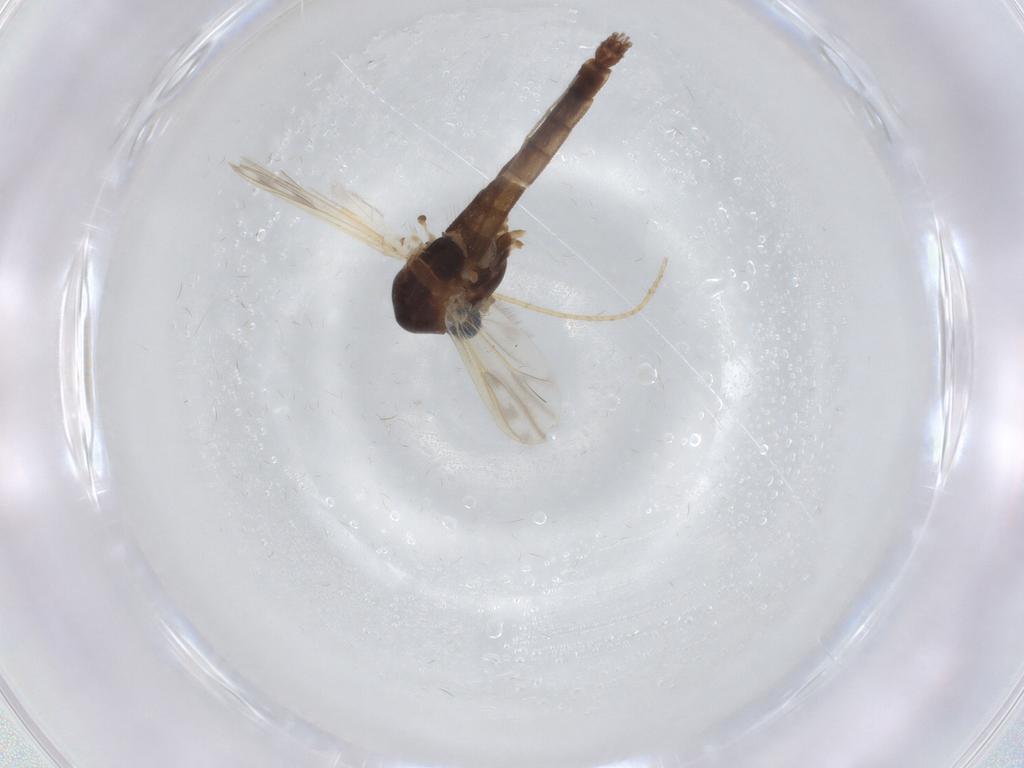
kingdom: Animalia
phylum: Arthropoda
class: Insecta
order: Diptera
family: Chironomidae
